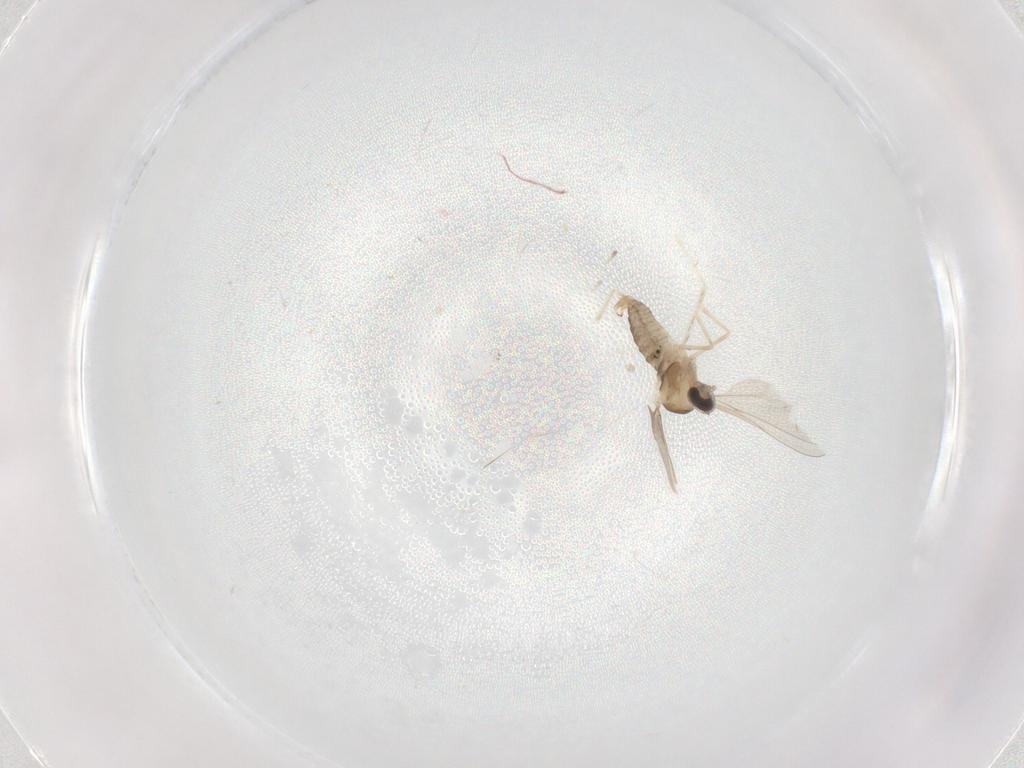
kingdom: Animalia
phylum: Arthropoda
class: Insecta
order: Diptera
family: Cecidomyiidae
